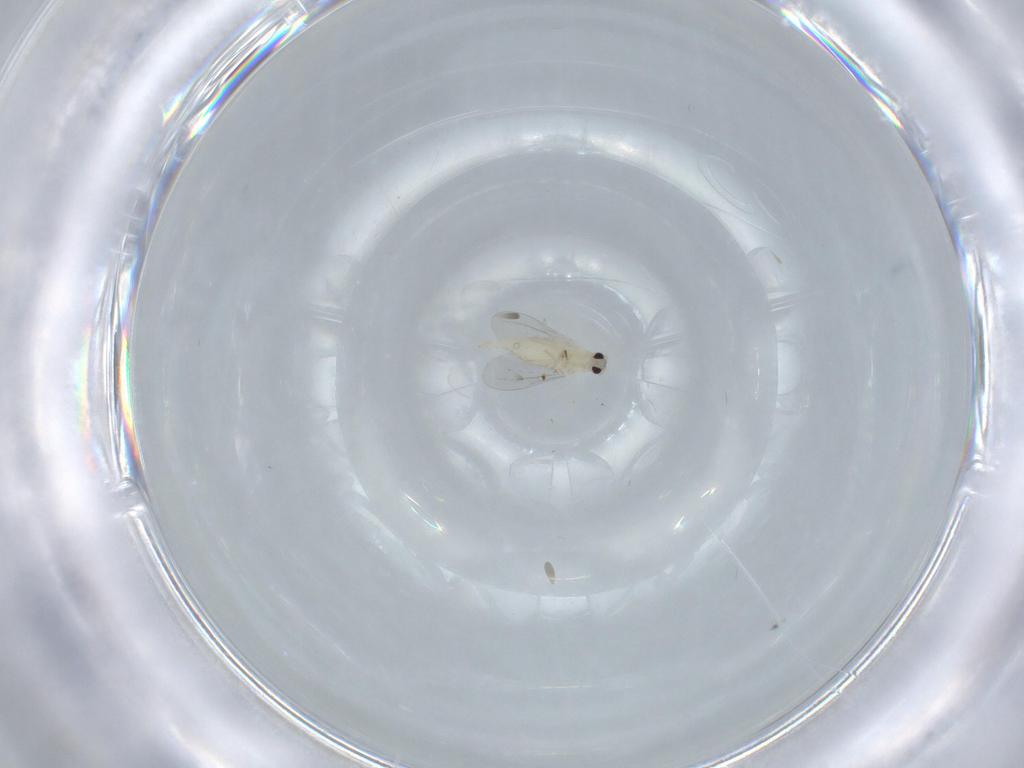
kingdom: Animalia
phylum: Arthropoda
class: Insecta
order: Diptera
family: Cecidomyiidae
